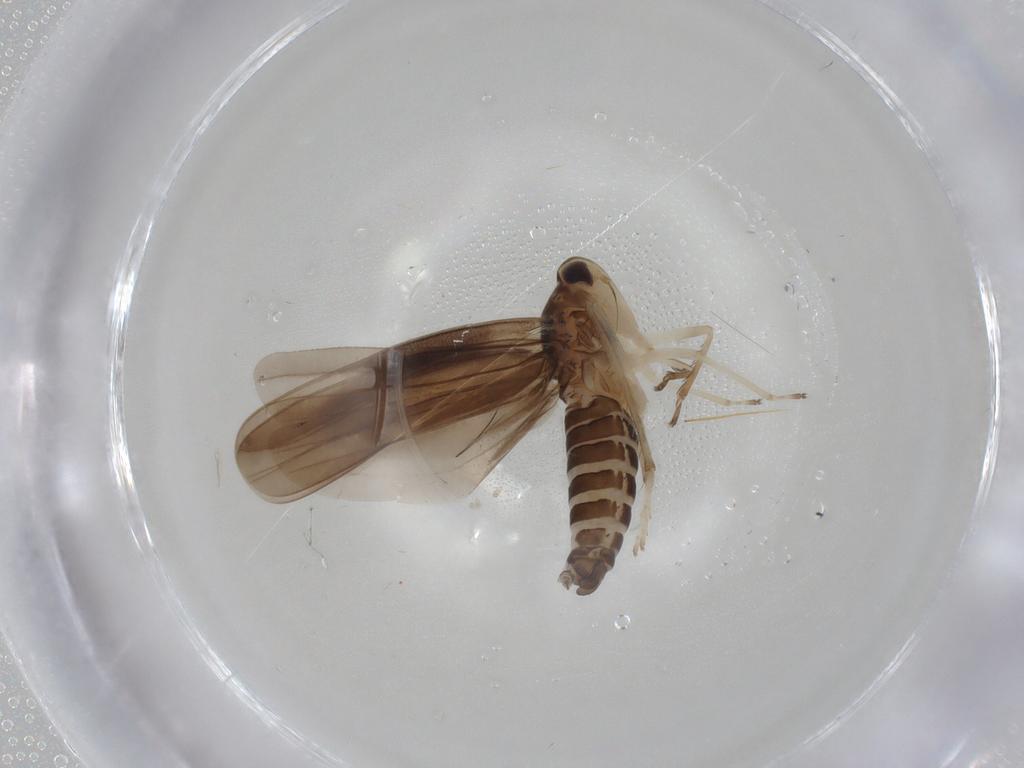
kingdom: Animalia
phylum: Arthropoda
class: Insecta
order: Hemiptera
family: Cicadellidae
